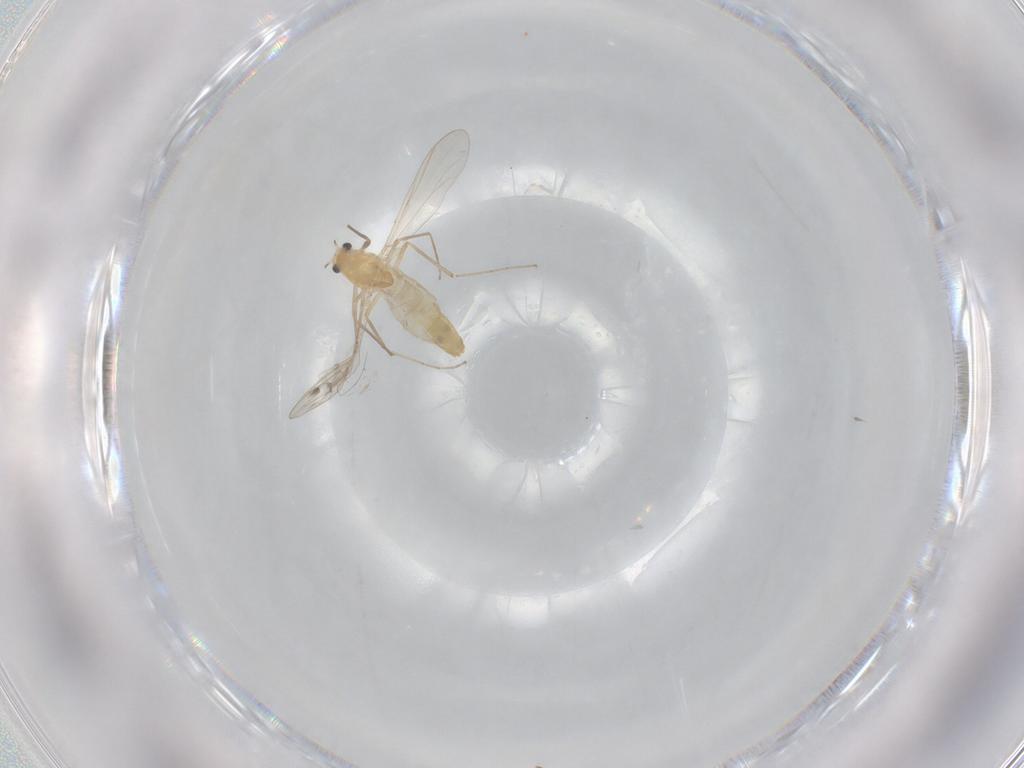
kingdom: Animalia
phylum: Arthropoda
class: Insecta
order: Diptera
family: Chironomidae
